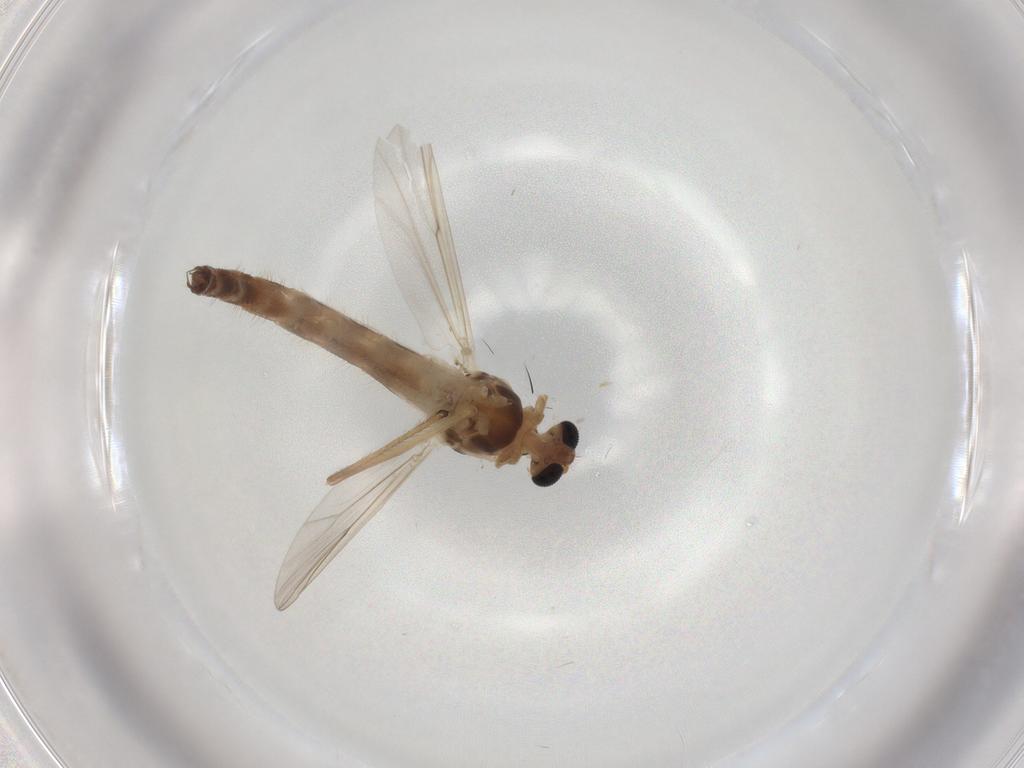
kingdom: Animalia
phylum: Arthropoda
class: Insecta
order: Diptera
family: Chironomidae
